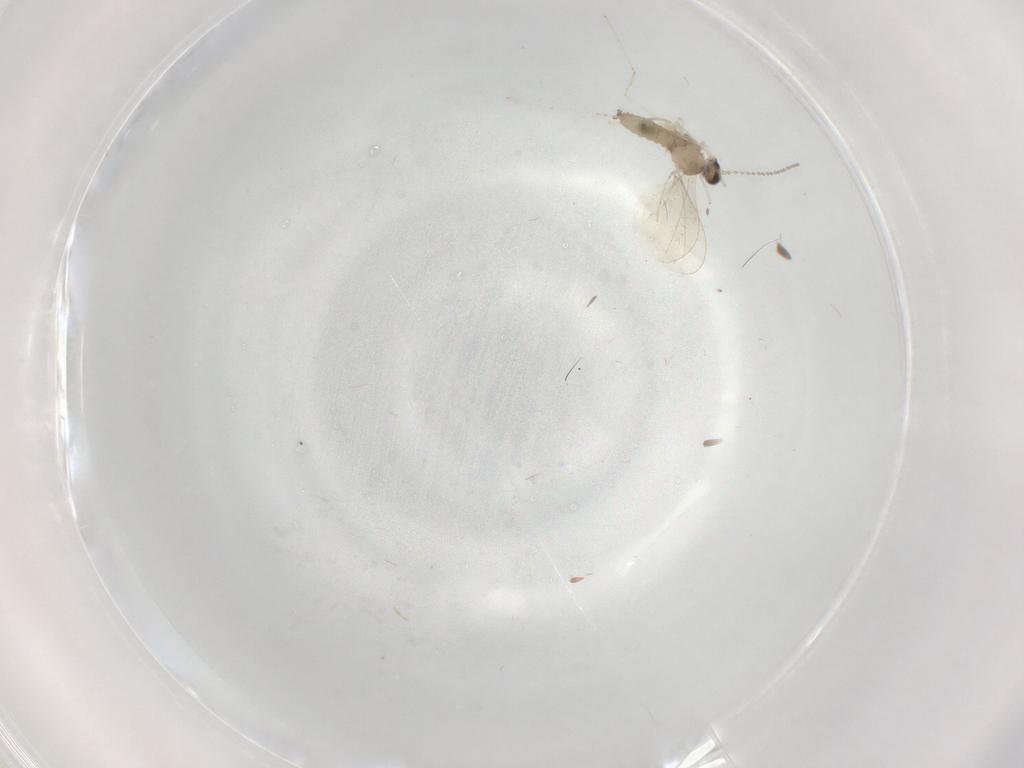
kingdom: Animalia
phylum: Arthropoda
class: Insecta
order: Diptera
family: Cecidomyiidae
